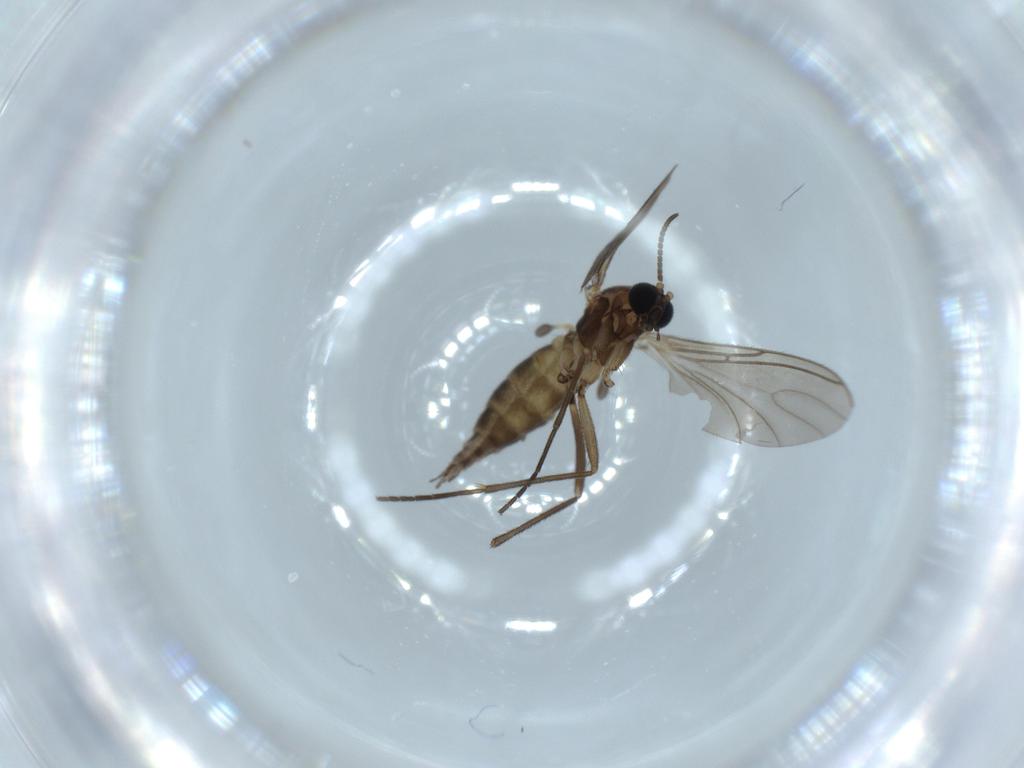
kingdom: Animalia
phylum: Arthropoda
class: Insecta
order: Diptera
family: Sciaridae
